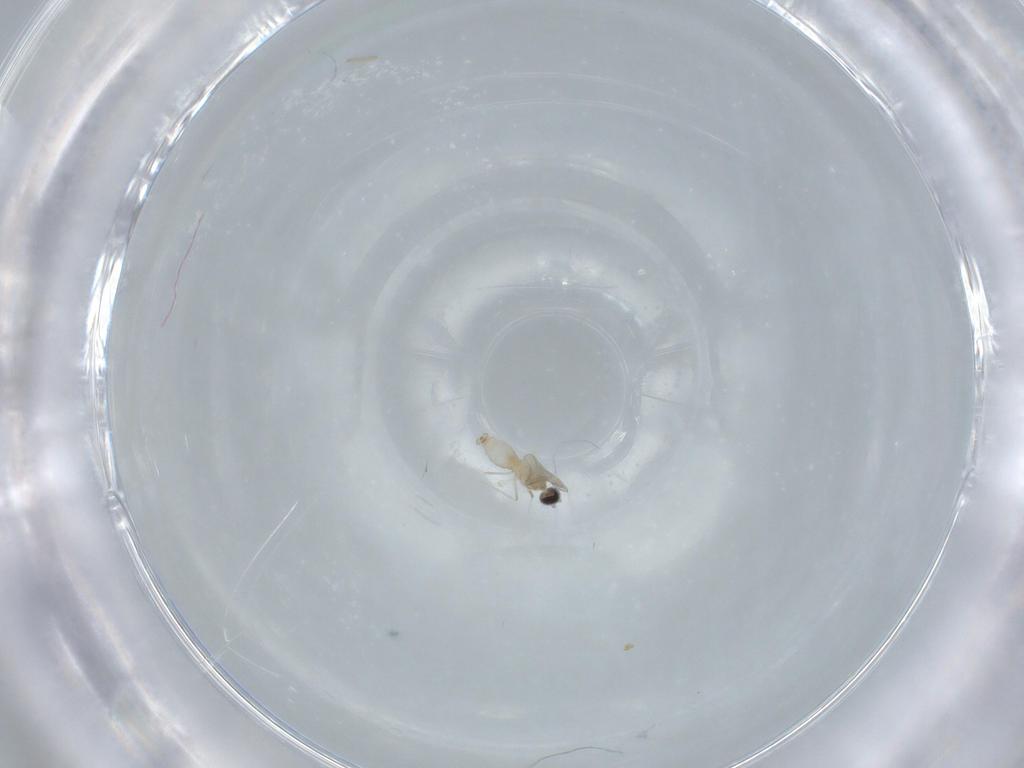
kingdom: Animalia
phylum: Arthropoda
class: Insecta
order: Diptera
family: Cecidomyiidae
